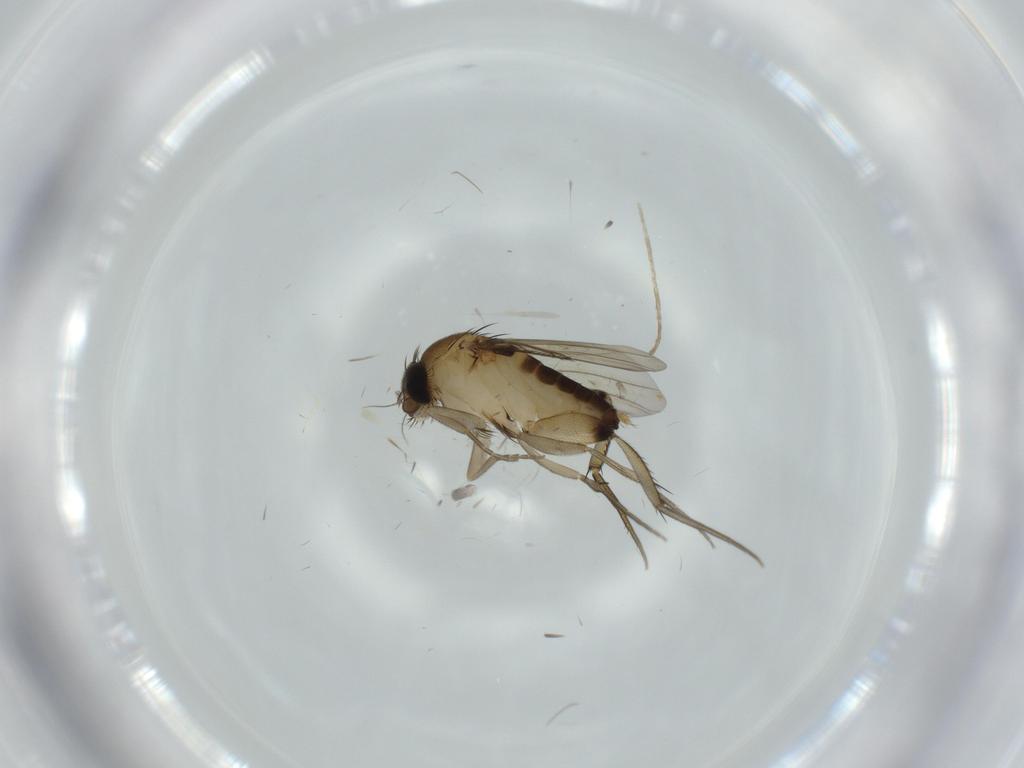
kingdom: Animalia
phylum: Arthropoda
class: Insecta
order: Diptera
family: Phoridae
